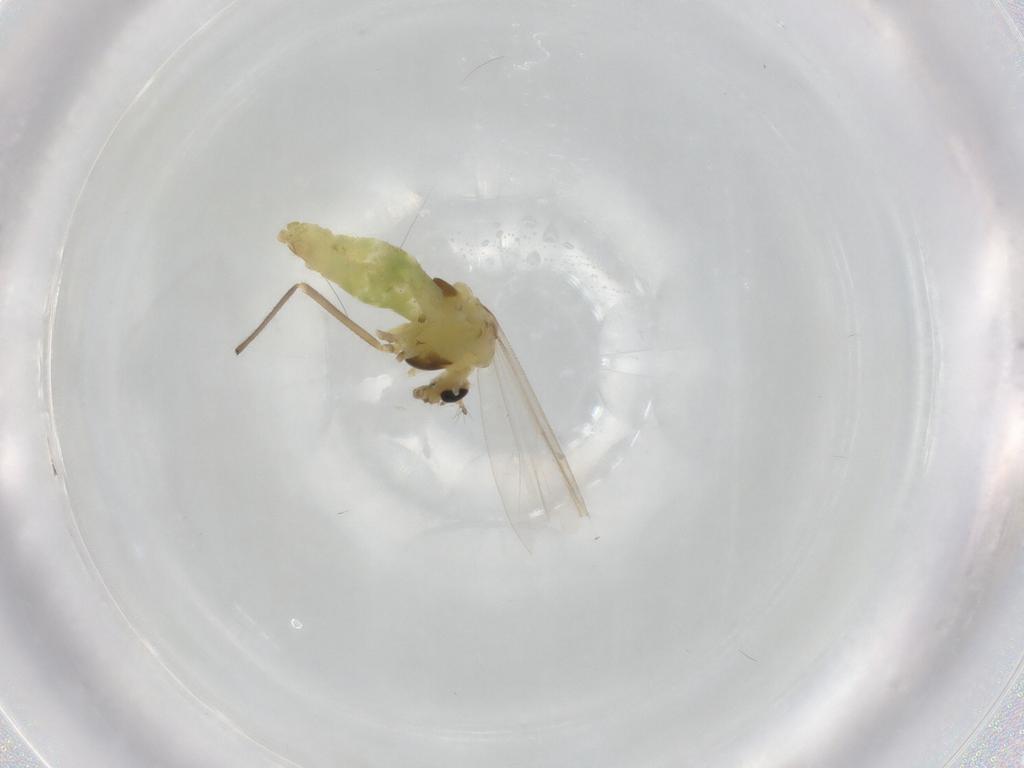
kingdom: Animalia
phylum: Arthropoda
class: Insecta
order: Diptera
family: Chironomidae
